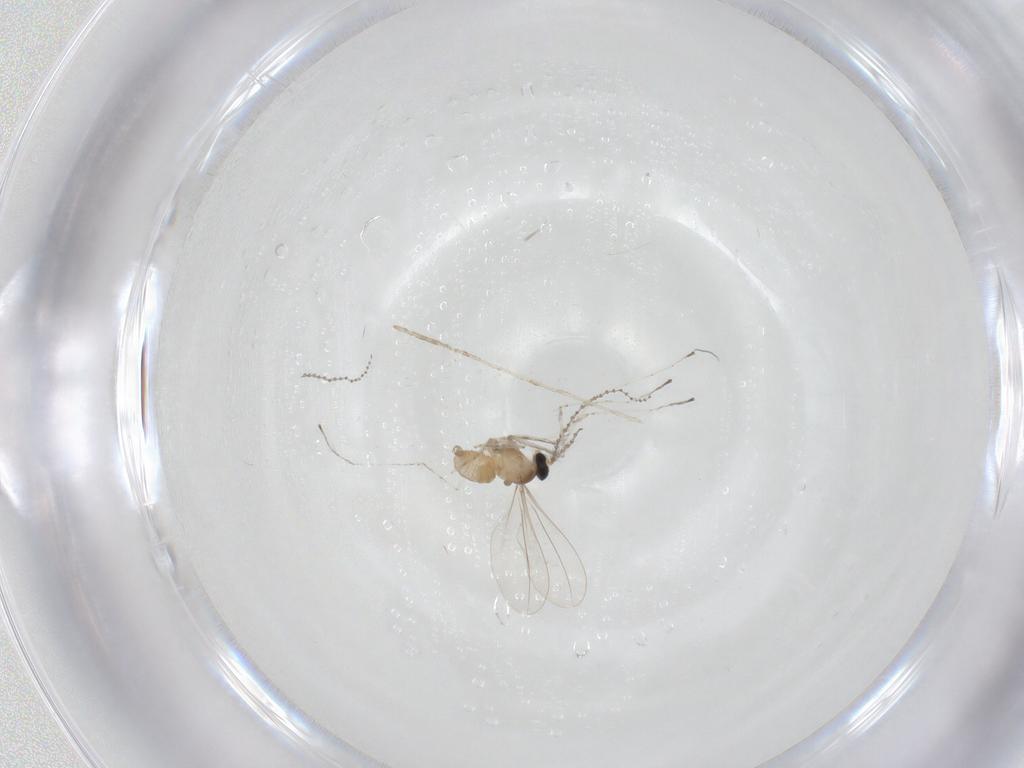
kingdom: Animalia
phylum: Arthropoda
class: Insecta
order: Diptera
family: Cecidomyiidae
